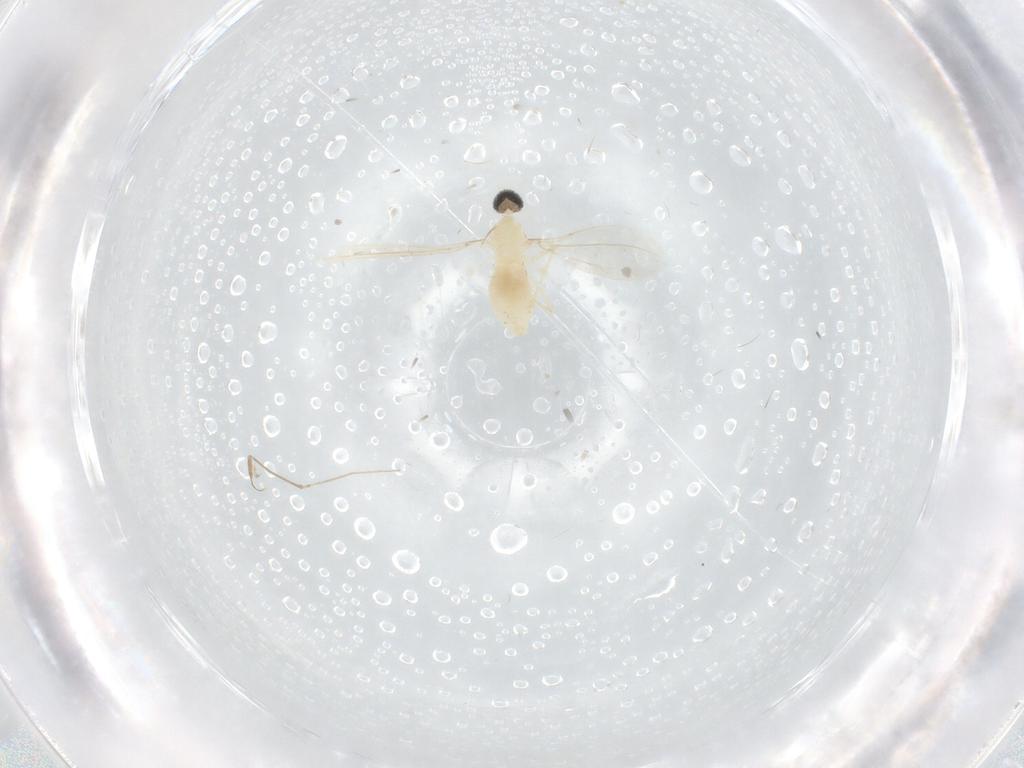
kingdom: Animalia
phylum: Arthropoda
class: Insecta
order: Diptera
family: Cecidomyiidae
